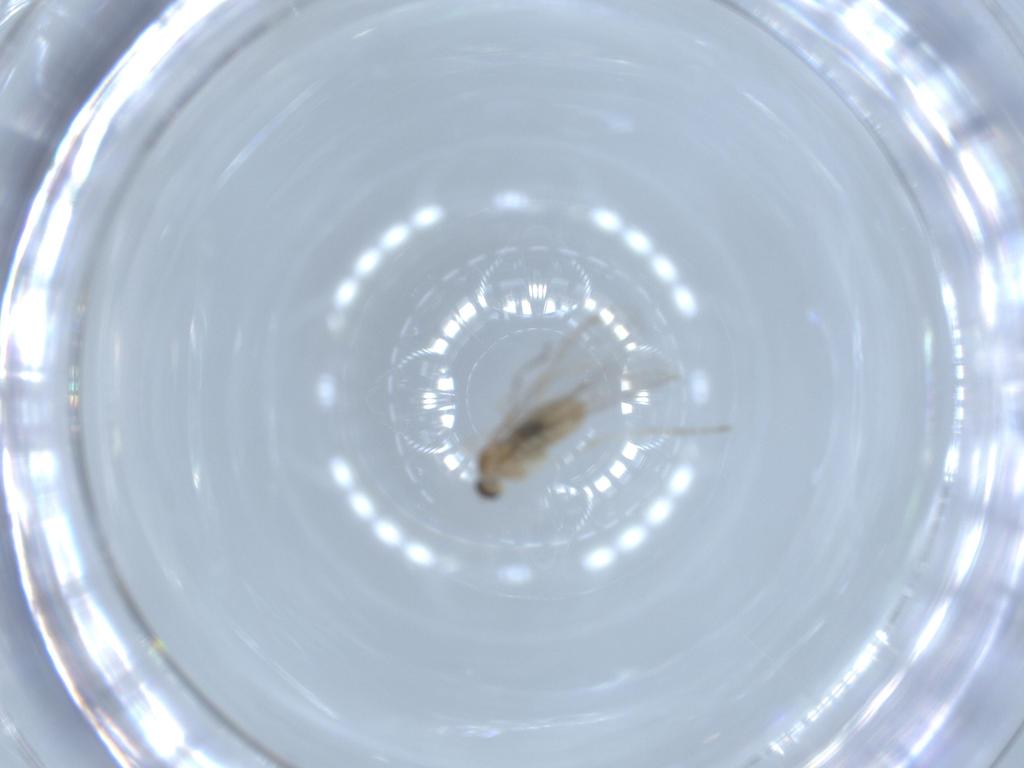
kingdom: Animalia
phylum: Arthropoda
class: Insecta
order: Diptera
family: Cecidomyiidae
